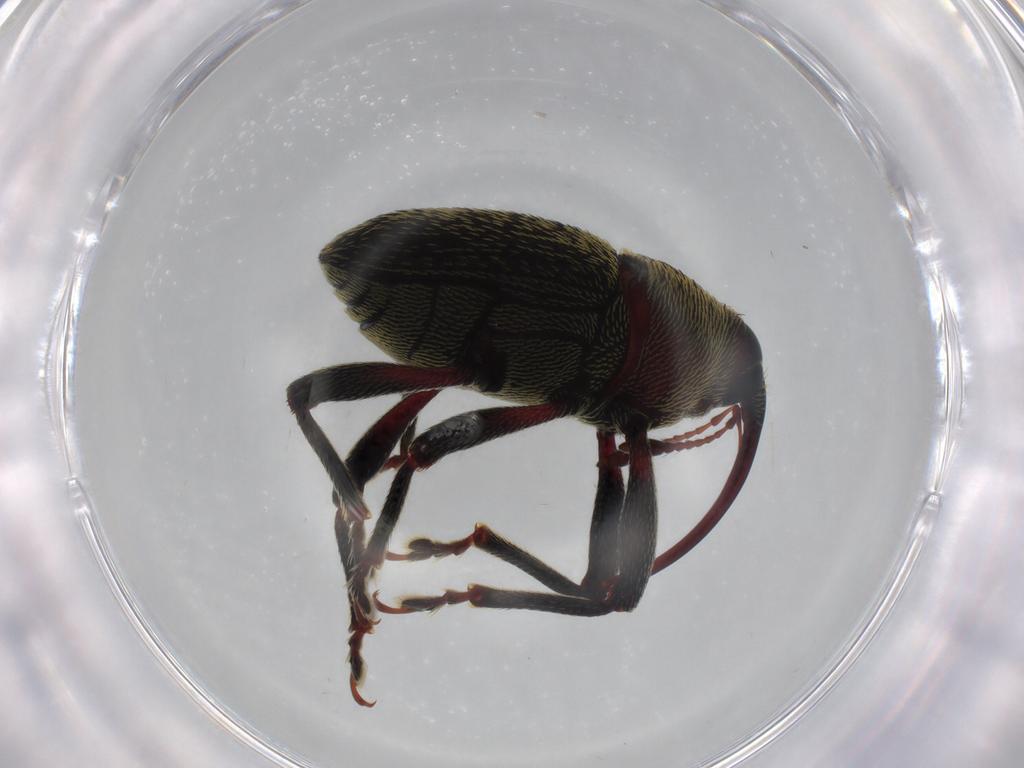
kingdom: Animalia
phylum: Arthropoda
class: Insecta
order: Coleoptera
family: Curculionidae
